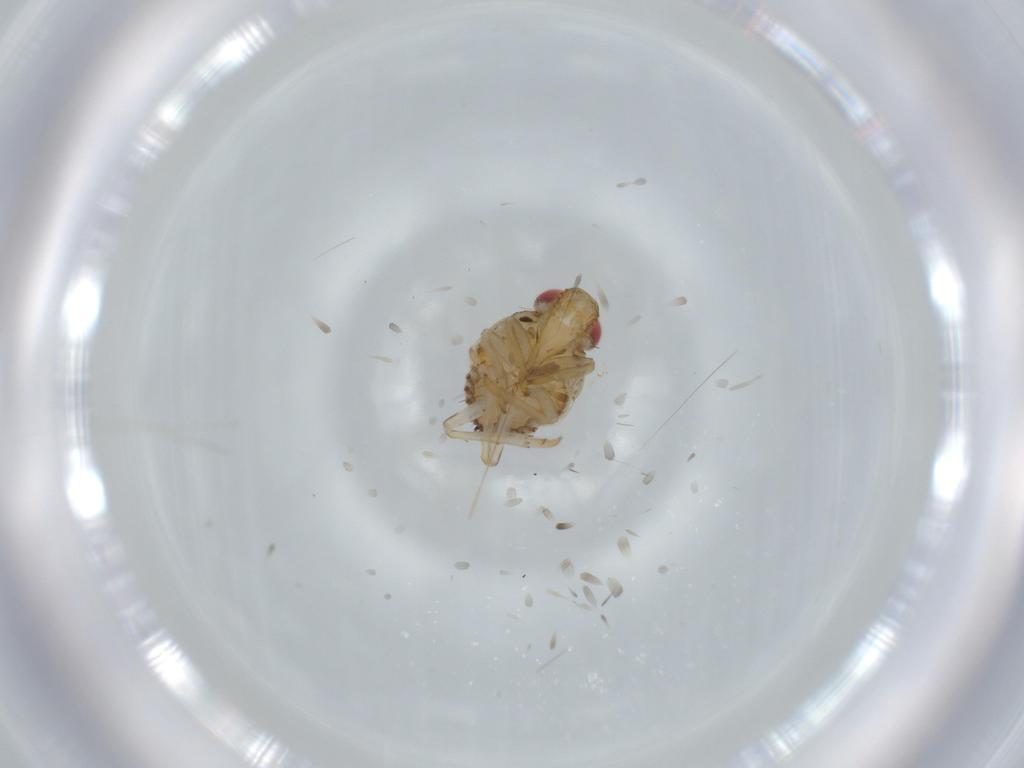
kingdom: Animalia
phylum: Arthropoda
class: Insecta
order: Hemiptera
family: Issidae
